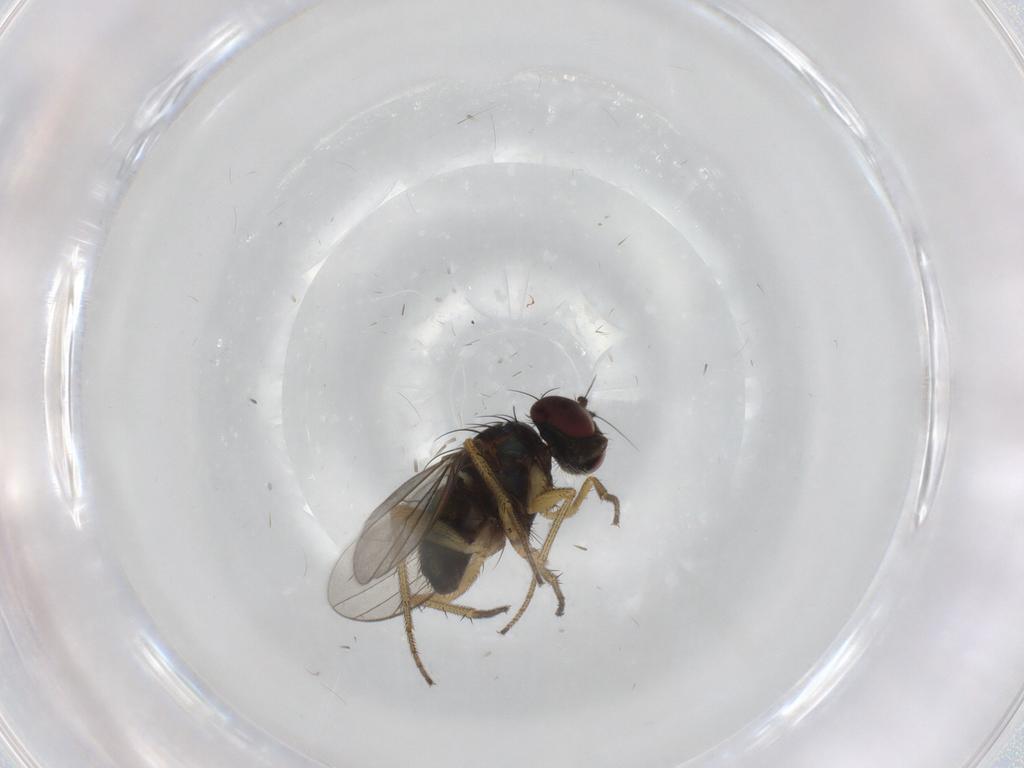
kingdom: Animalia
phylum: Arthropoda
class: Insecta
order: Diptera
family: Dolichopodidae
